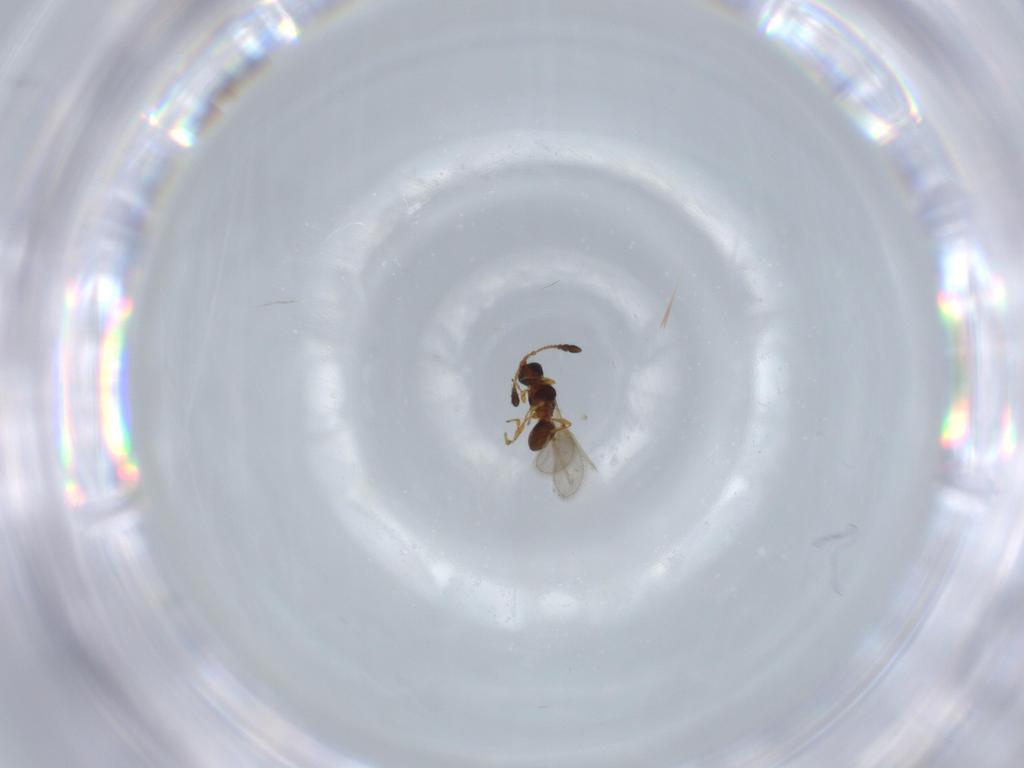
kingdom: Animalia
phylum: Arthropoda
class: Insecta
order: Hymenoptera
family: Diapriidae
